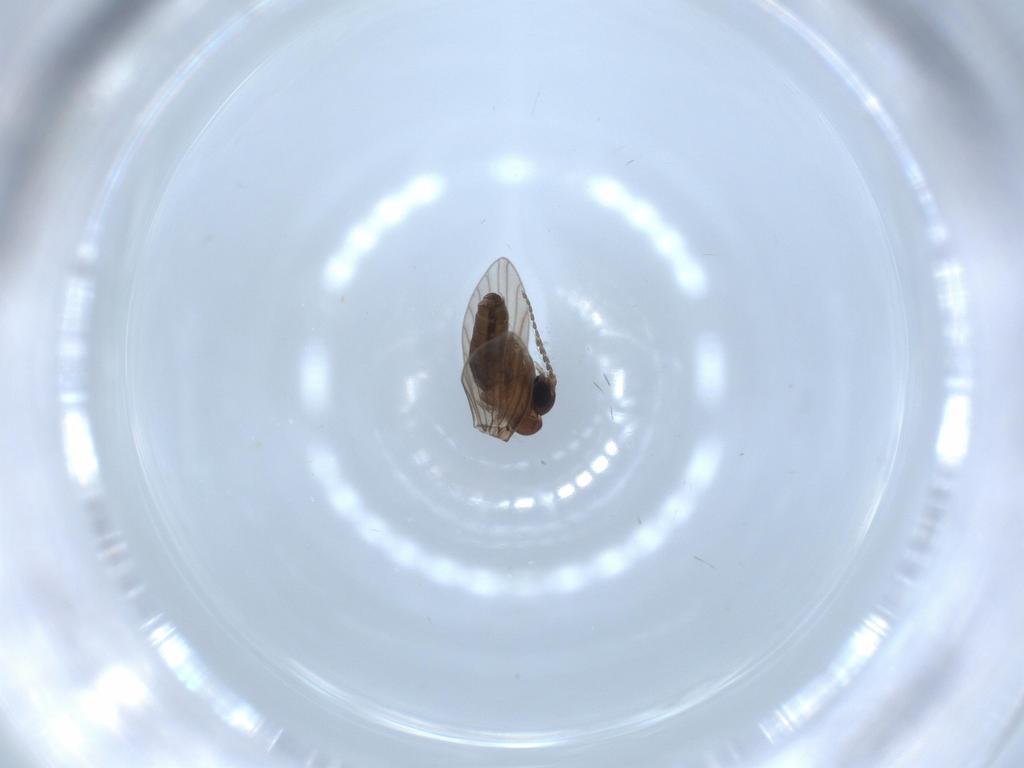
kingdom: Animalia
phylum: Arthropoda
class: Insecta
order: Diptera
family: Psychodidae
